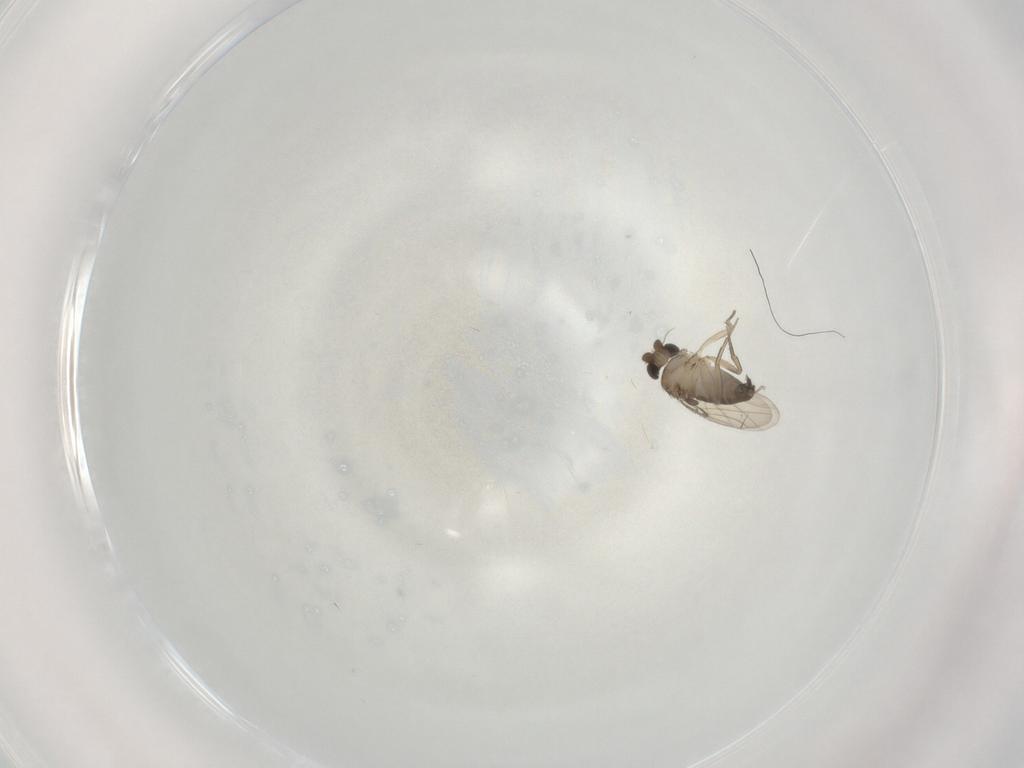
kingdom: Animalia
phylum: Arthropoda
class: Insecta
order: Diptera
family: Phoridae
